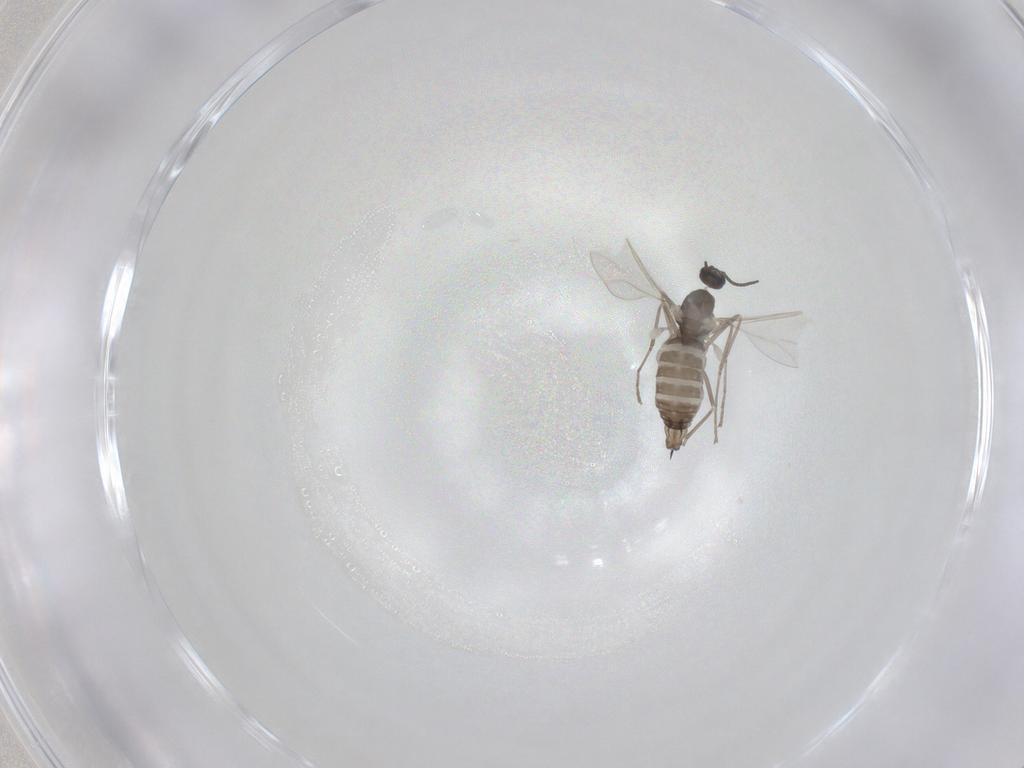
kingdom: Animalia
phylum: Arthropoda
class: Insecta
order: Diptera
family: Cecidomyiidae
